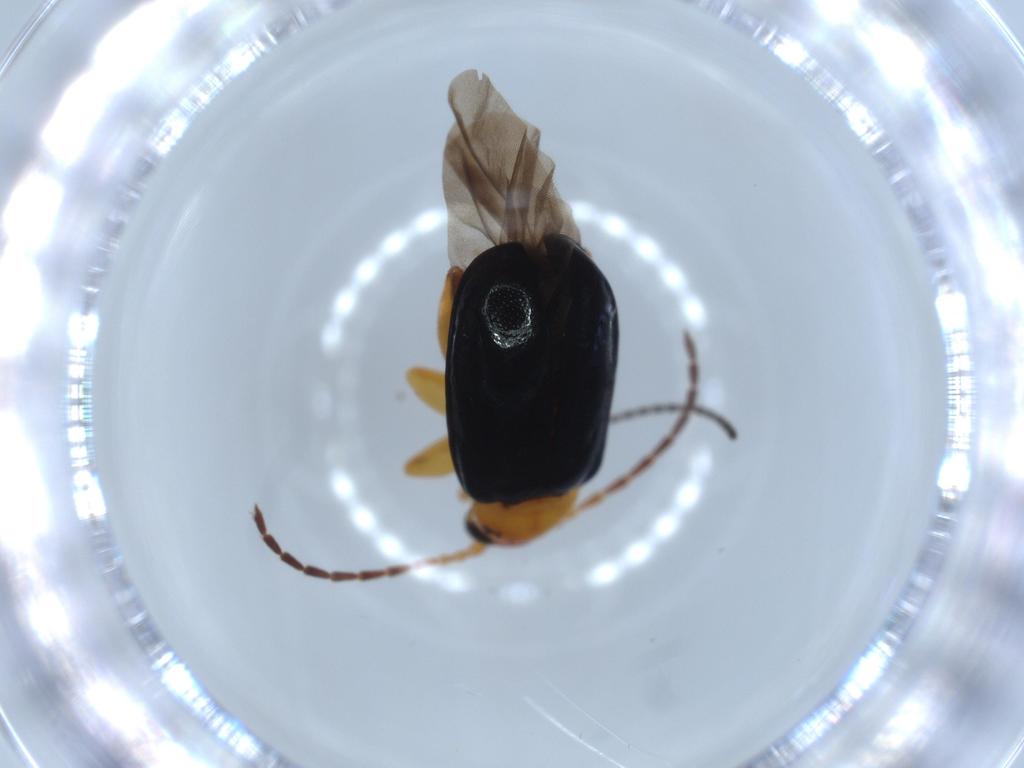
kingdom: Animalia
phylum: Arthropoda
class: Insecta
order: Coleoptera
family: Chrysomelidae
